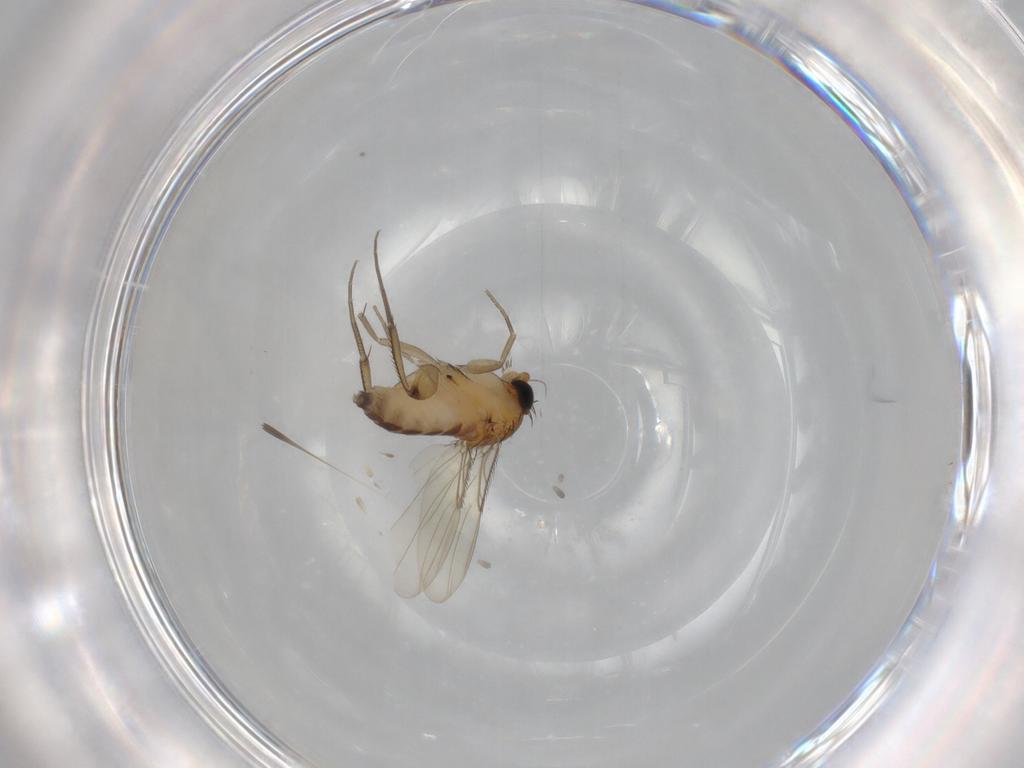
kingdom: Animalia
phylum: Arthropoda
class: Insecta
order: Diptera
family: Phoridae
